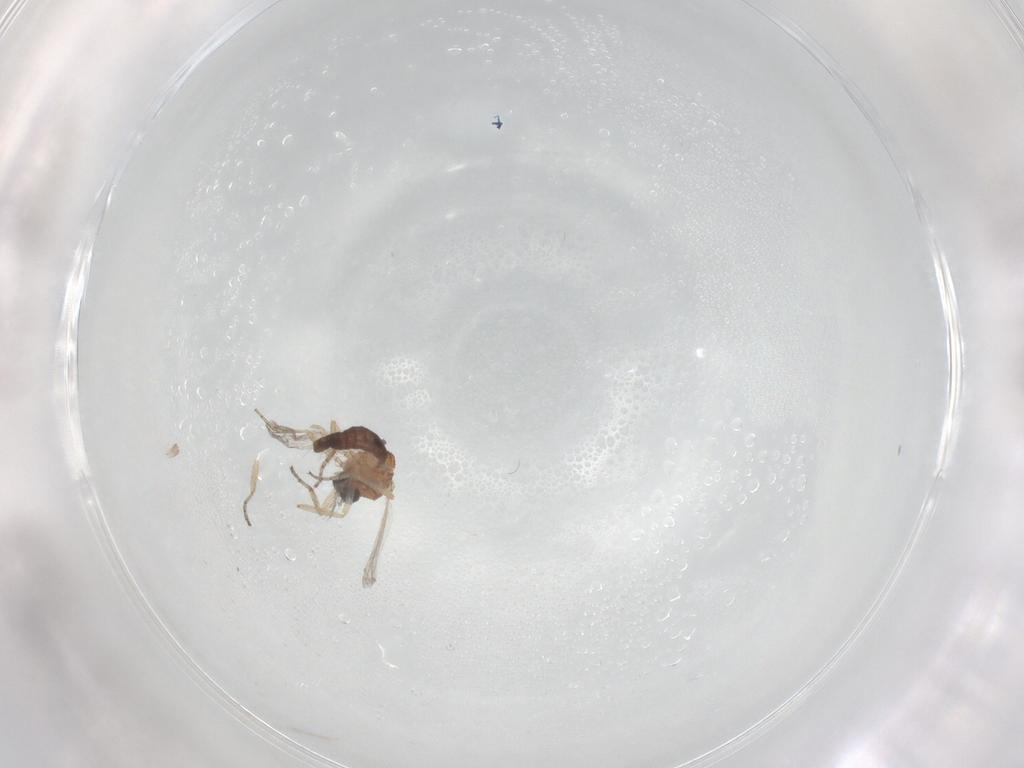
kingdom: Animalia
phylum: Arthropoda
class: Insecta
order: Diptera
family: Ceratopogonidae
